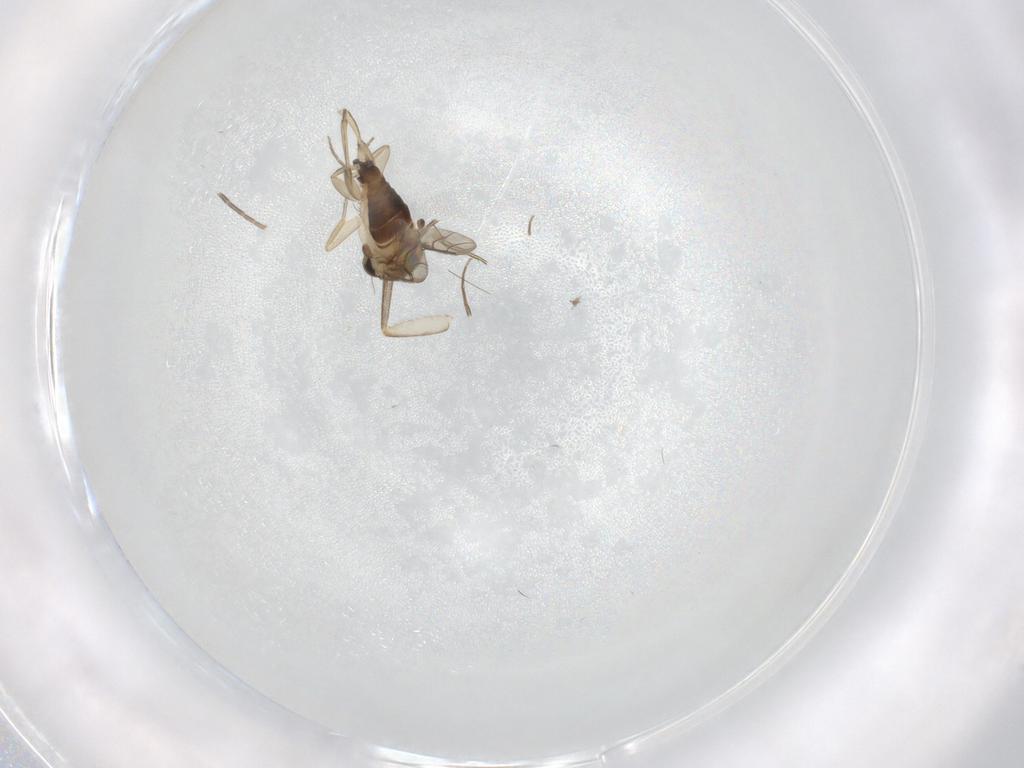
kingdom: Animalia
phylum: Arthropoda
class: Insecta
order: Diptera
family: Phoridae
